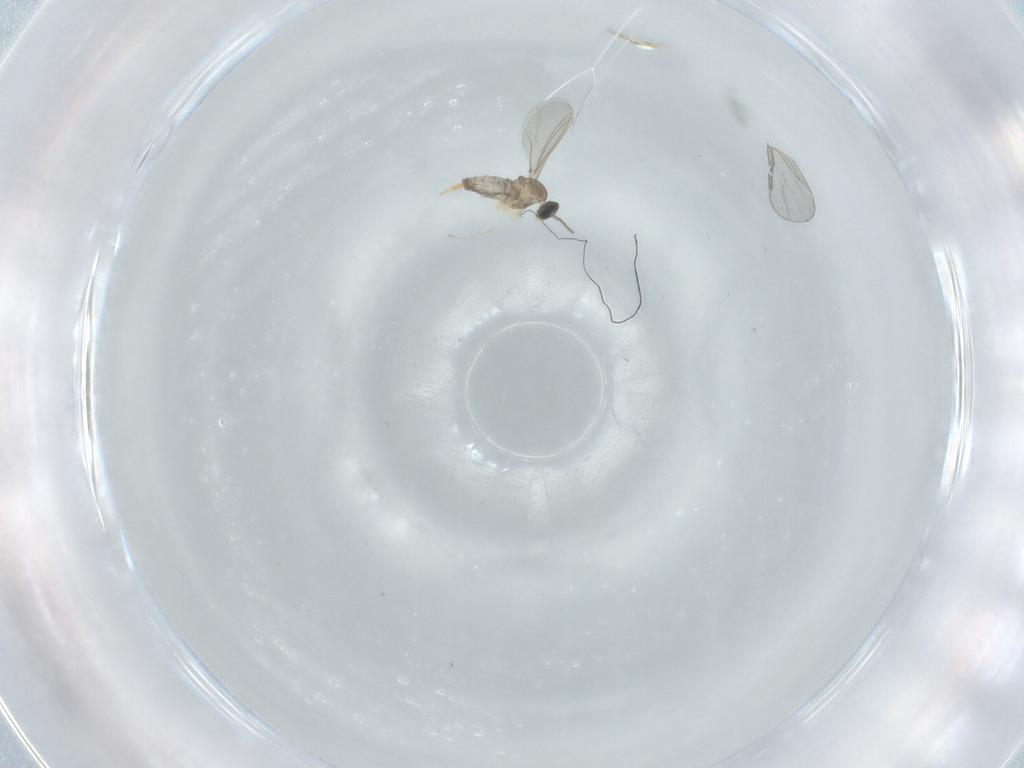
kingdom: Animalia
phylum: Arthropoda
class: Insecta
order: Diptera
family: Cecidomyiidae
